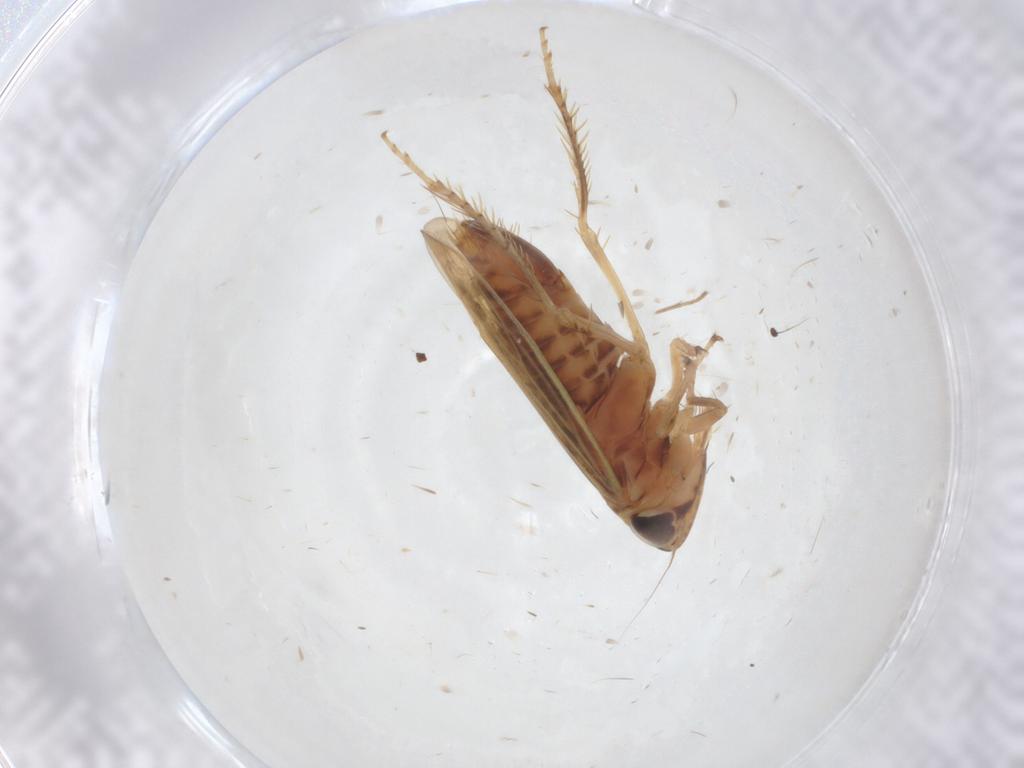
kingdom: Animalia
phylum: Arthropoda
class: Insecta
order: Hemiptera
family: Cicadellidae
